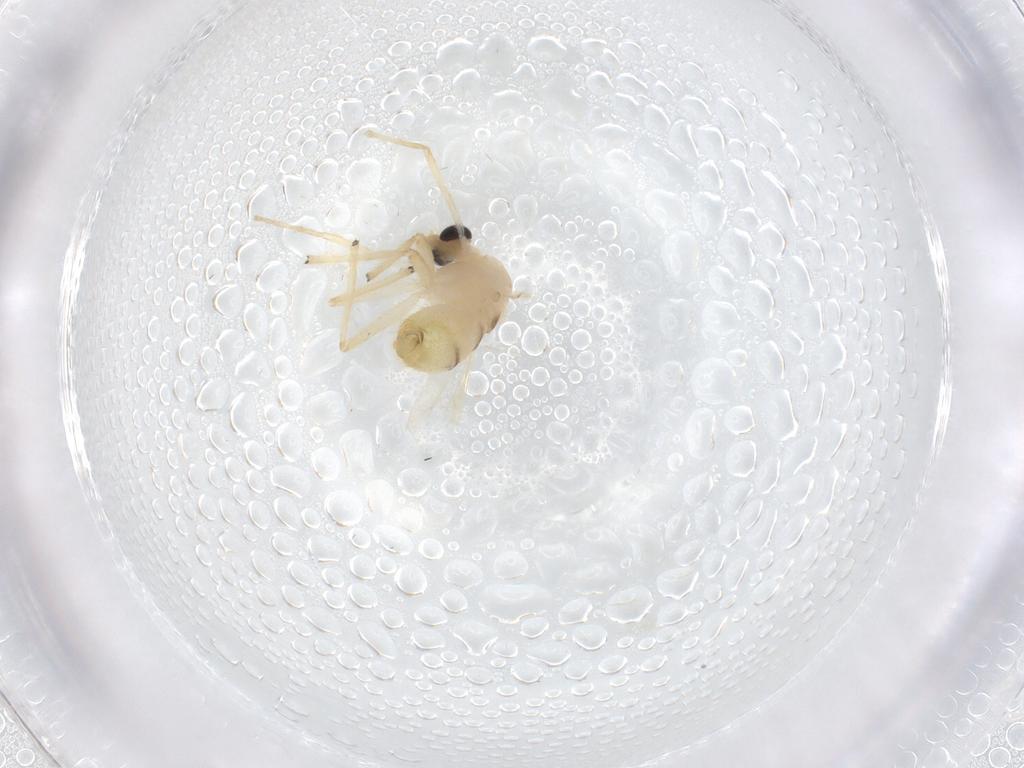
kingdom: Animalia
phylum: Arthropoda
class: Insecta
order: Diptera
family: Chironomidae
